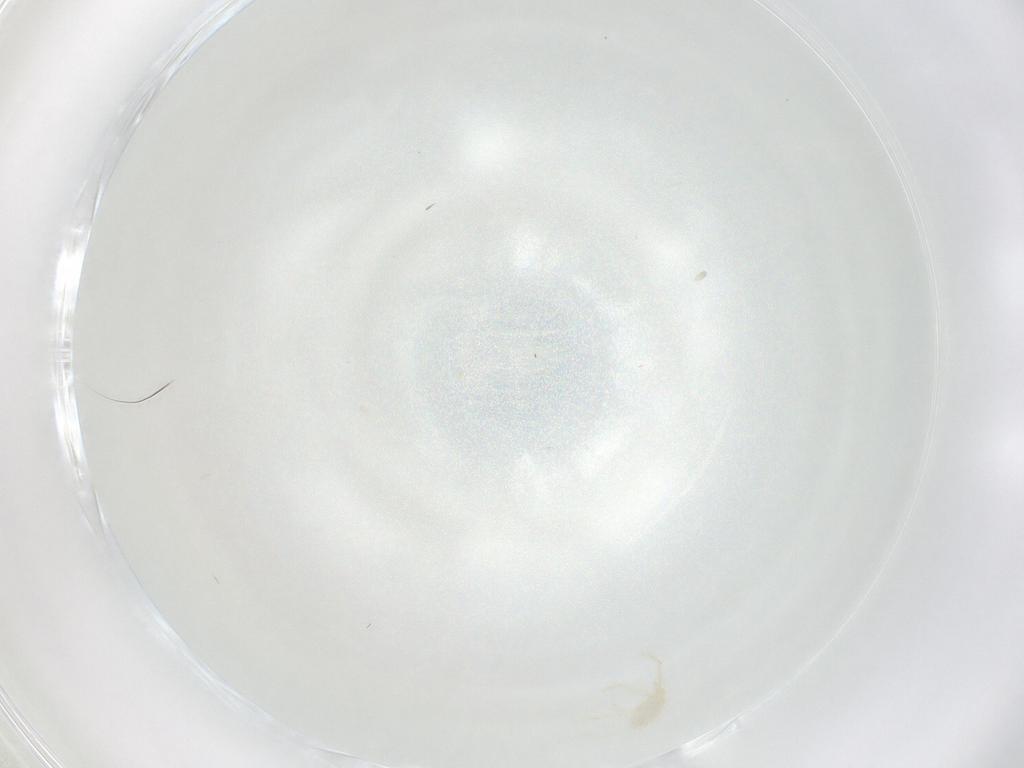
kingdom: Animalia
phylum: Arthropoda
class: Arachnida
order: Trombidiformes
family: Erythraeidae
